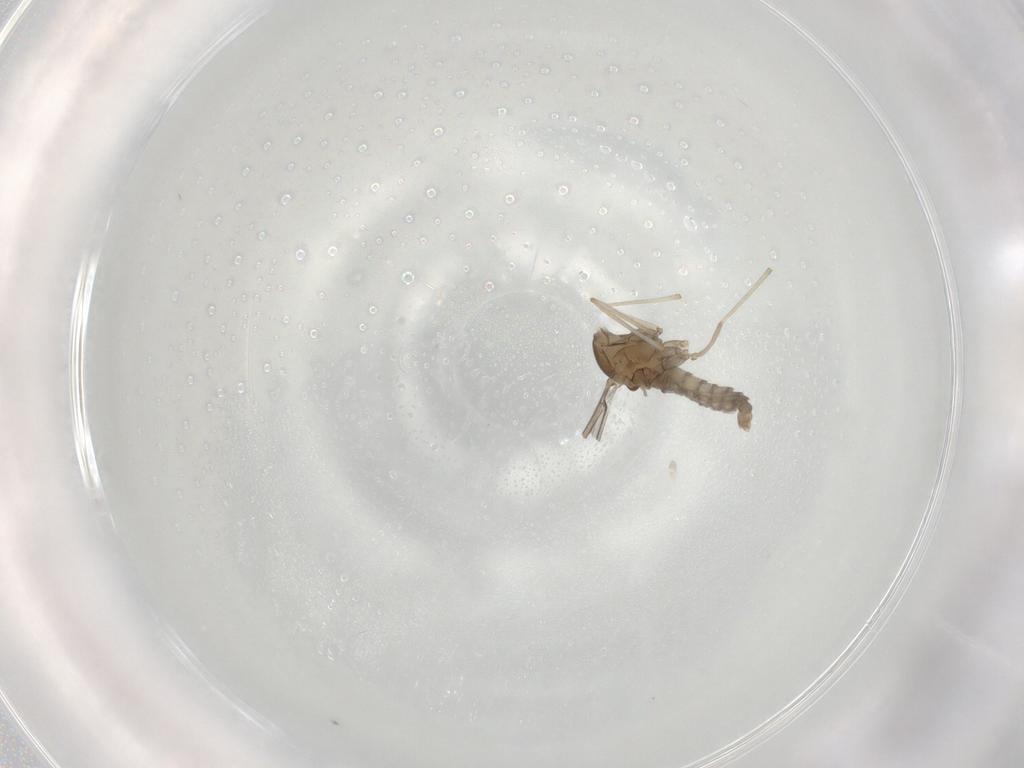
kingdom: Animalia
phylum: Arthropoda
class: Insecta
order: Diptera
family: Cecidomyiidae
